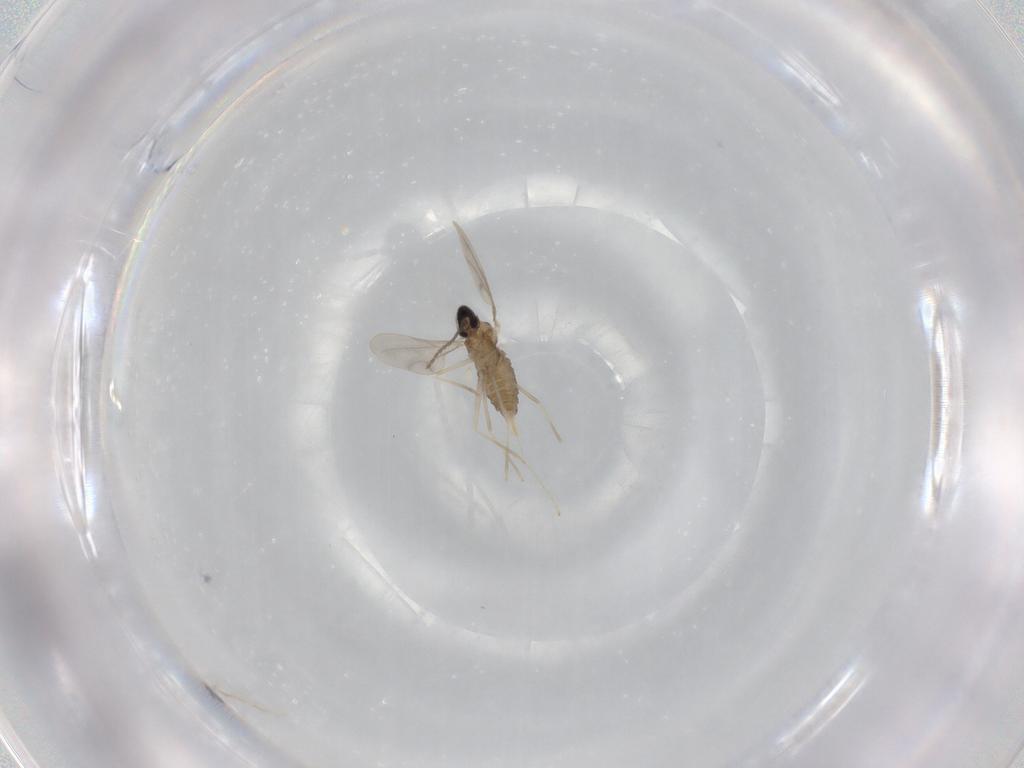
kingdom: Animalia
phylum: Arthropoda
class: Insecta
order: Diptera
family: Cecidomyiidae
